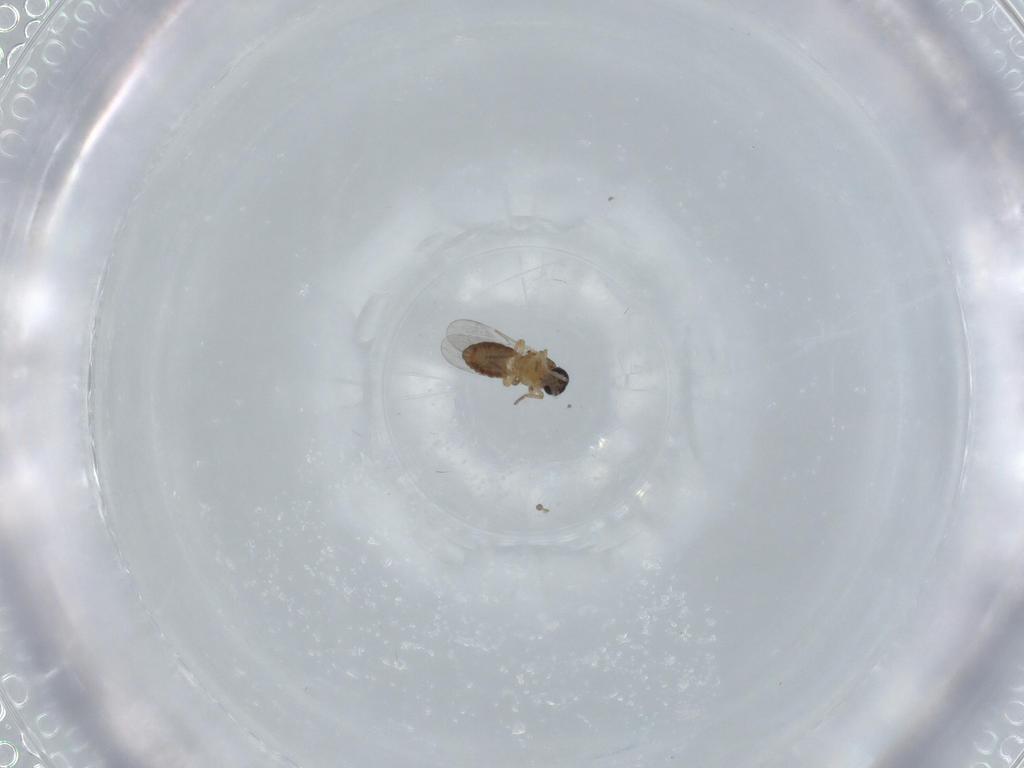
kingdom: Animalia
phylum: Arthropoda
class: Insecta
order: Diptera
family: Ceratopogonidae
